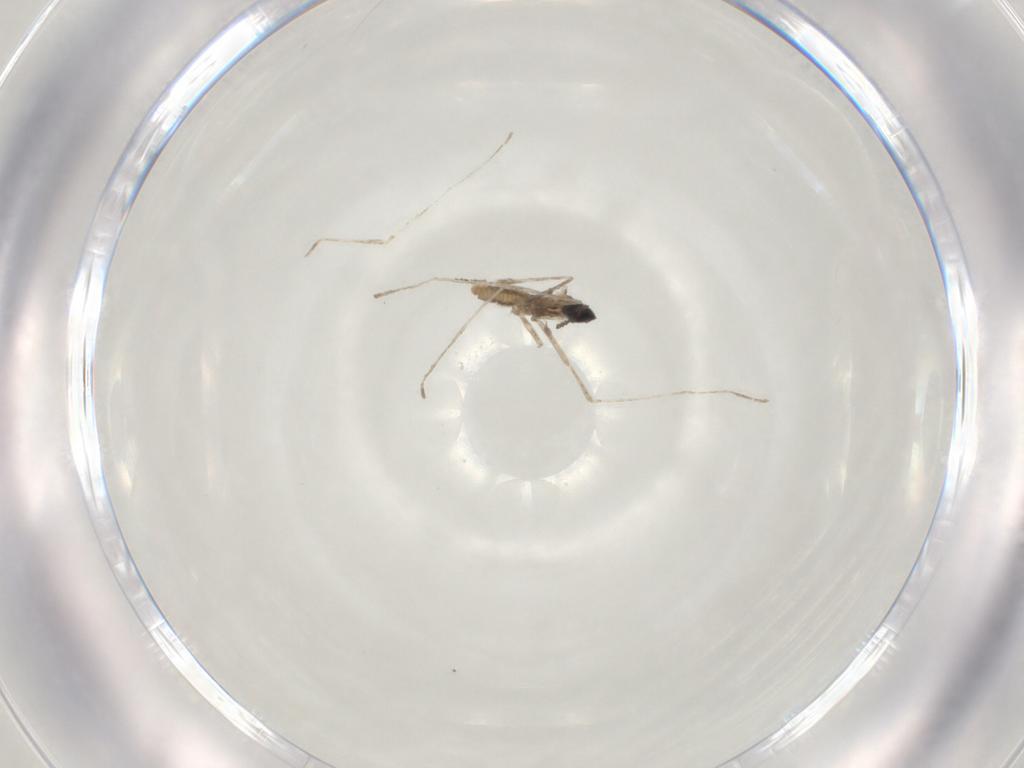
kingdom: Animalia
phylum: Arthropoda
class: Insecta
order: Diptera
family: Cecidomyiidae
